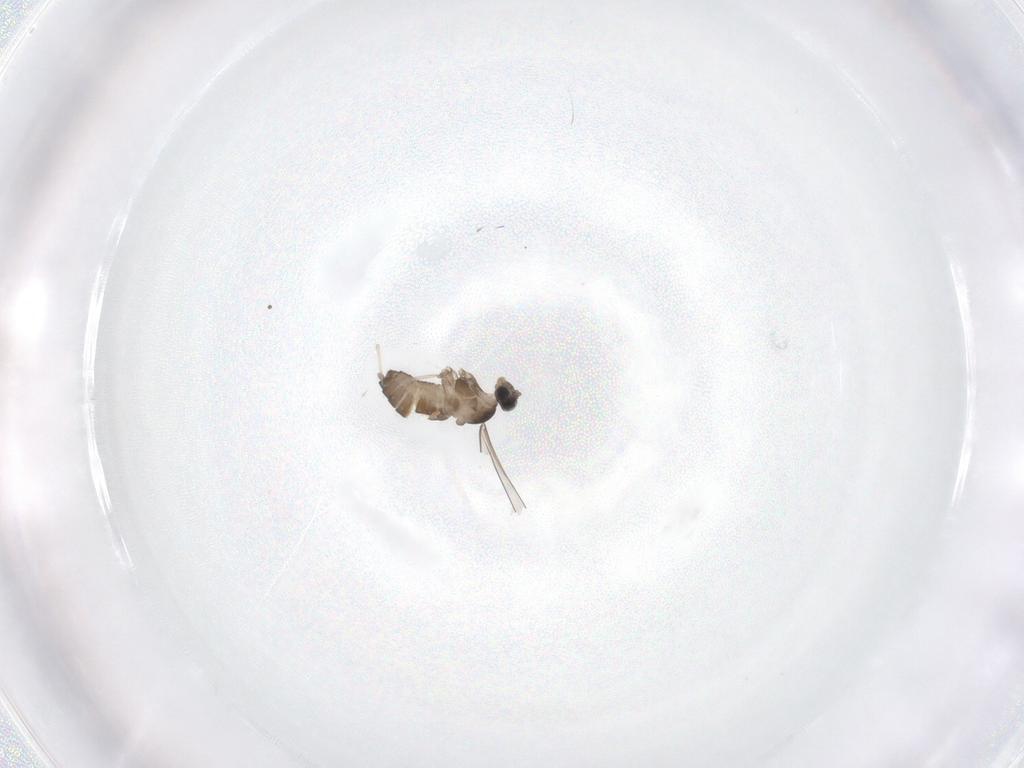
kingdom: Animalia
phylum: Arthropoda
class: Insecta
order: Diptera
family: Cecidomyiidae
